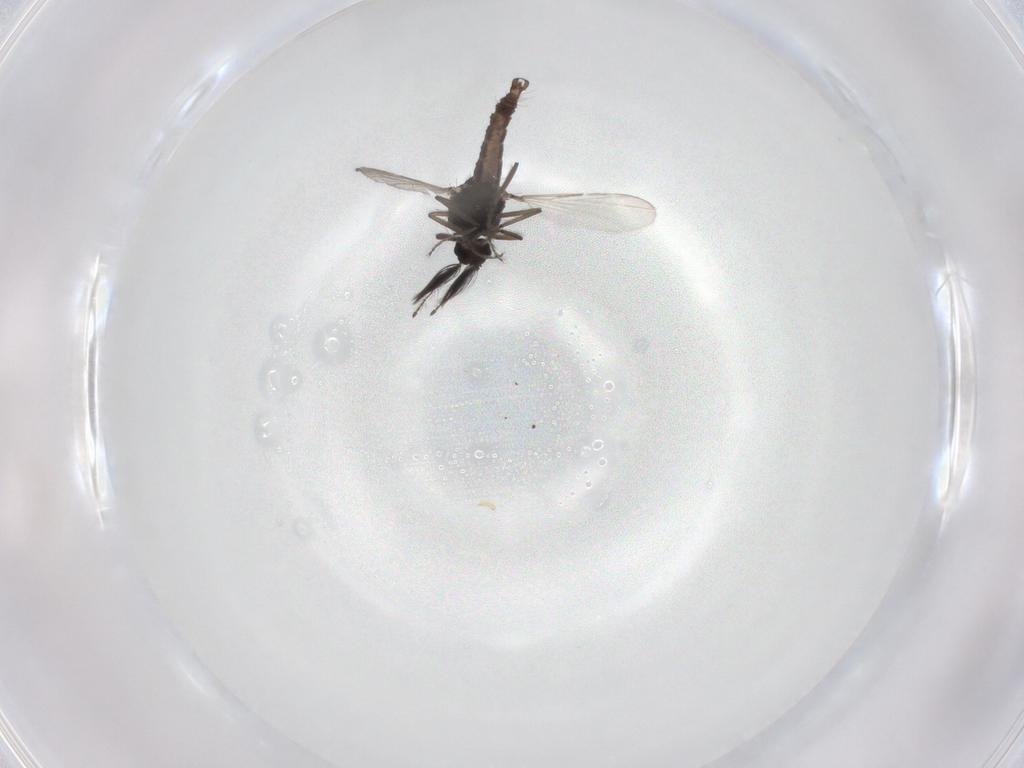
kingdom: Animalia
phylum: Arthropoda
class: Insecta
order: Diptera
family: Ceratopogonidae
